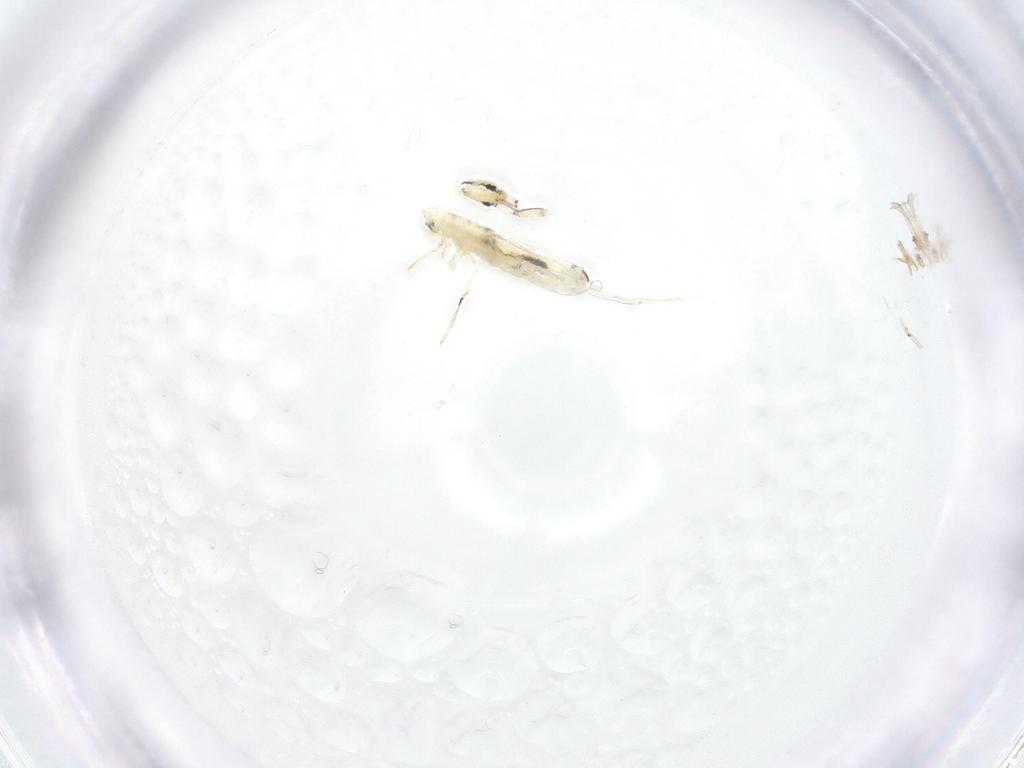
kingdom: Animalia
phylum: Arthropoda
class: Collembola
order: Entomobryomorpha
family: Entomobryidae
